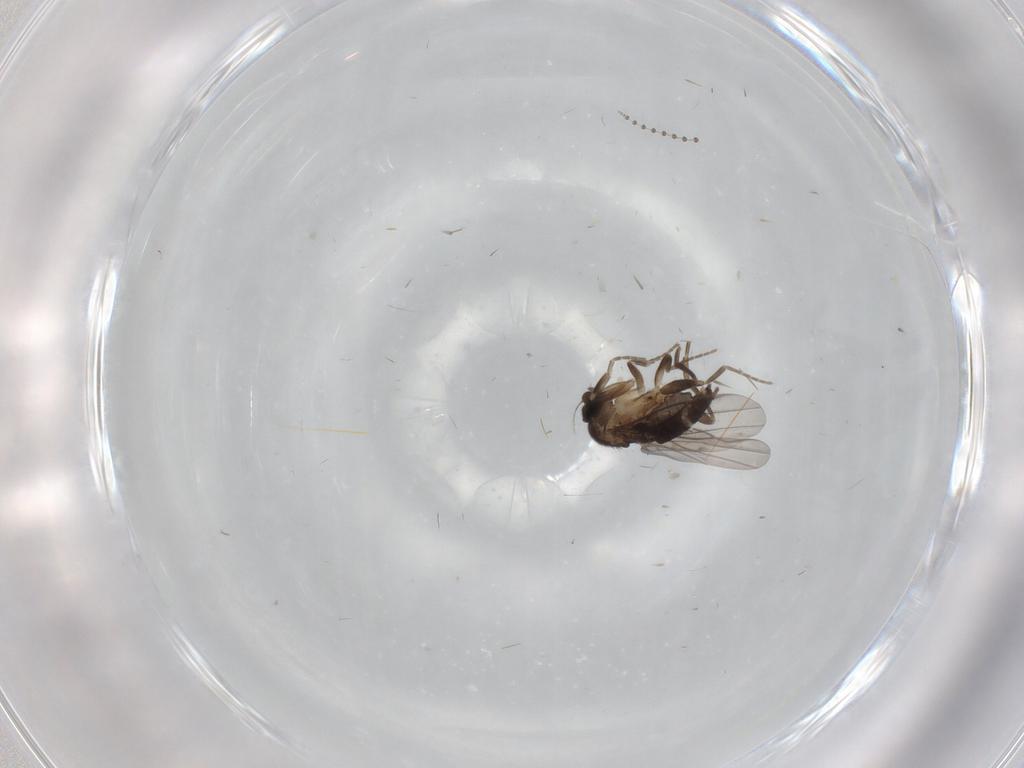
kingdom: Animalia
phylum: Arthropoda
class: Insecta
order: Diptera
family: Psychodidae
